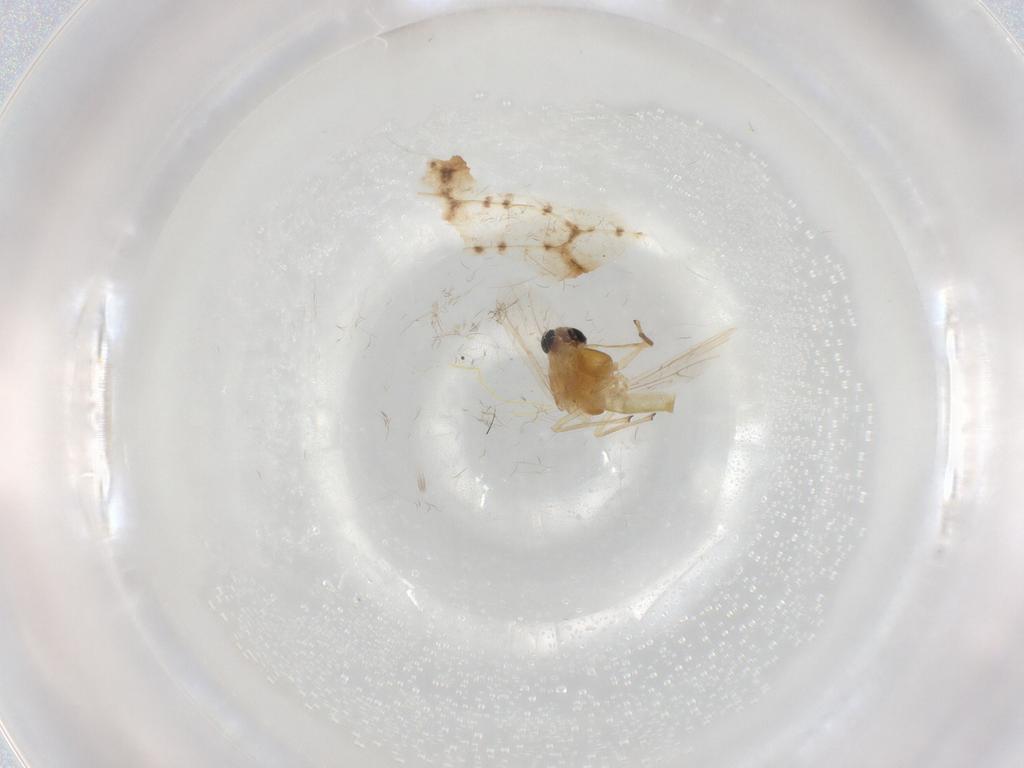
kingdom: Animalia
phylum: Arthropoda
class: Insecta
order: Diptera
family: Chironomidae
